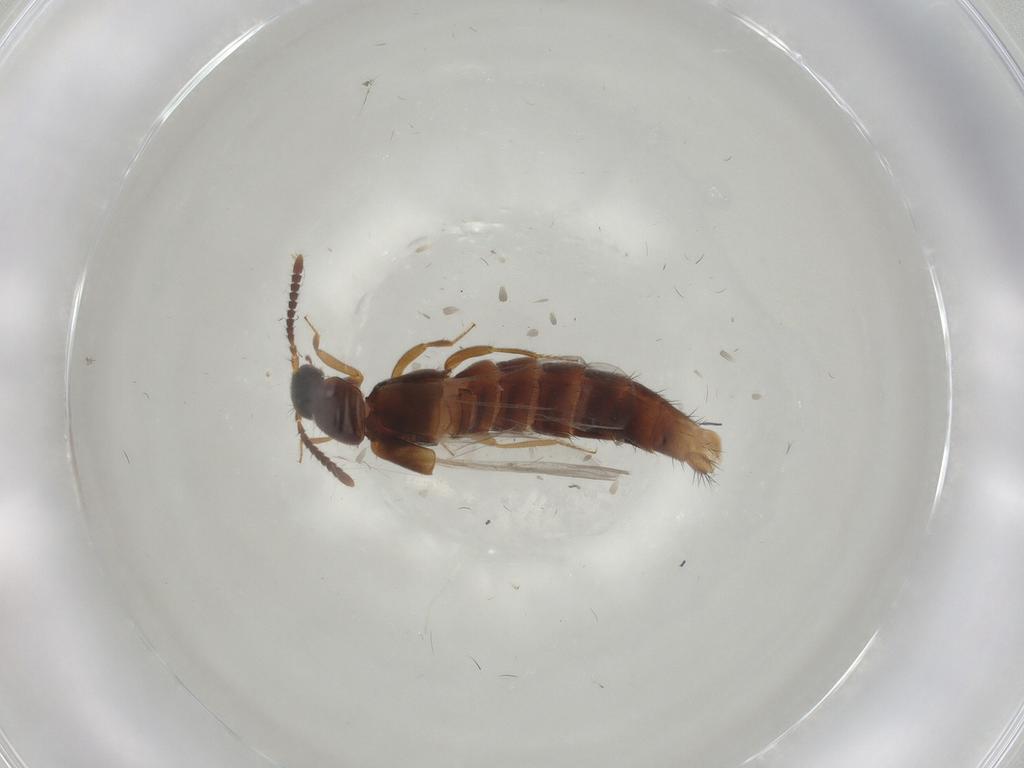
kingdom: Animalia
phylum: Arthropoda
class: Insecta
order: Coleoptera
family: Staphylinidae
